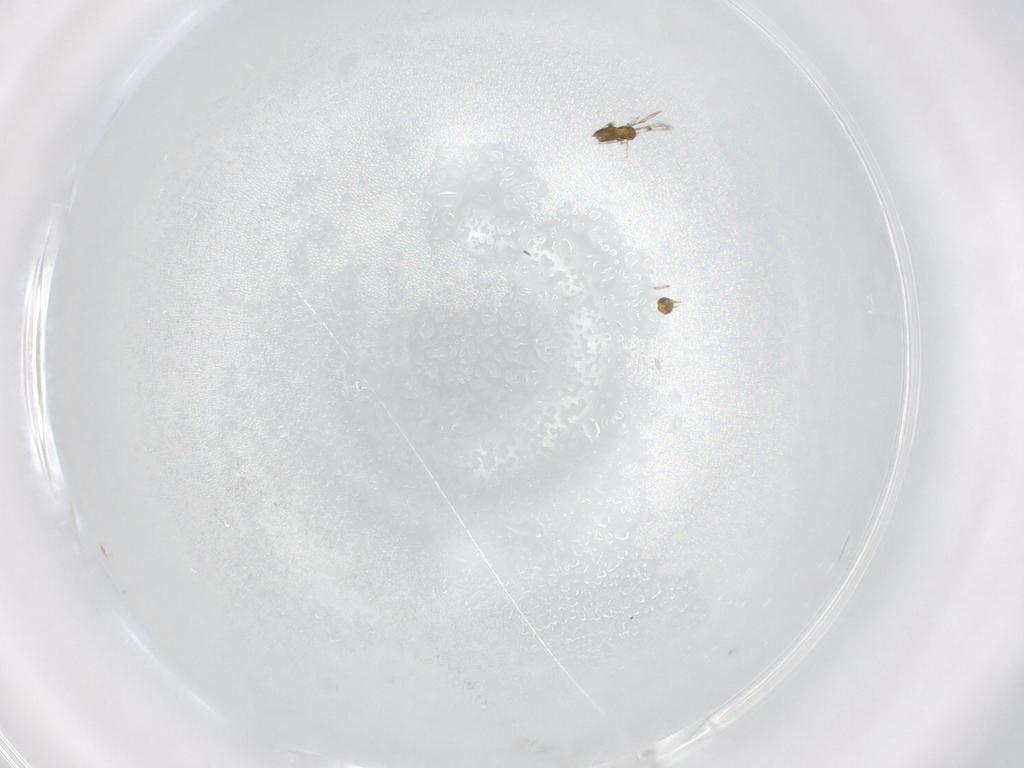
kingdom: Animalia
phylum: Arthropoda
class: Insecta
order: Hymenoptera
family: Trichogrammatidae
